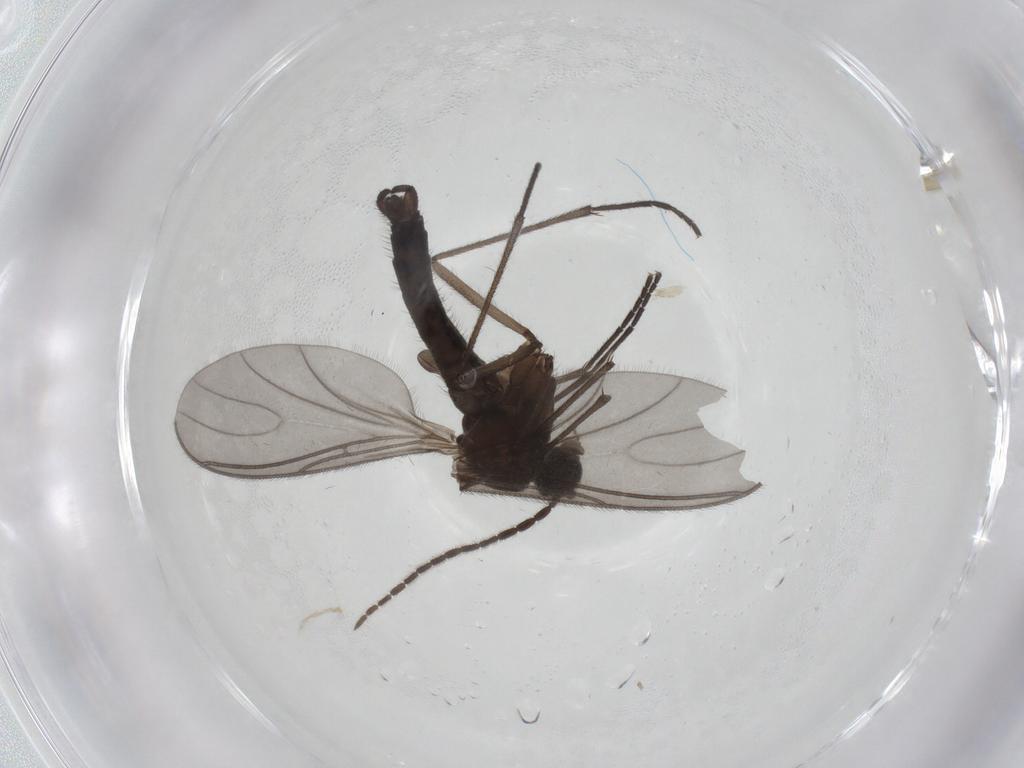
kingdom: Animalia
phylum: Arthropoda
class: Insecta
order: Diptera
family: Sciaridae
